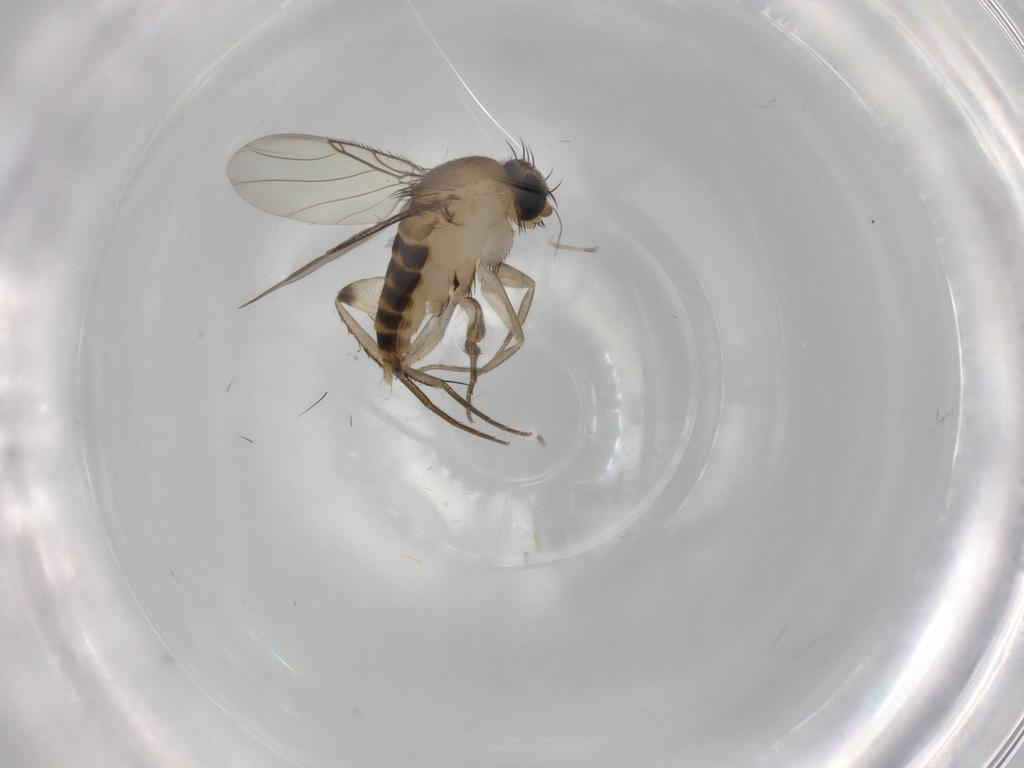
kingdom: Animalia
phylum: Arthropoda
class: Insecta
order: Diptera
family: Phoridae
